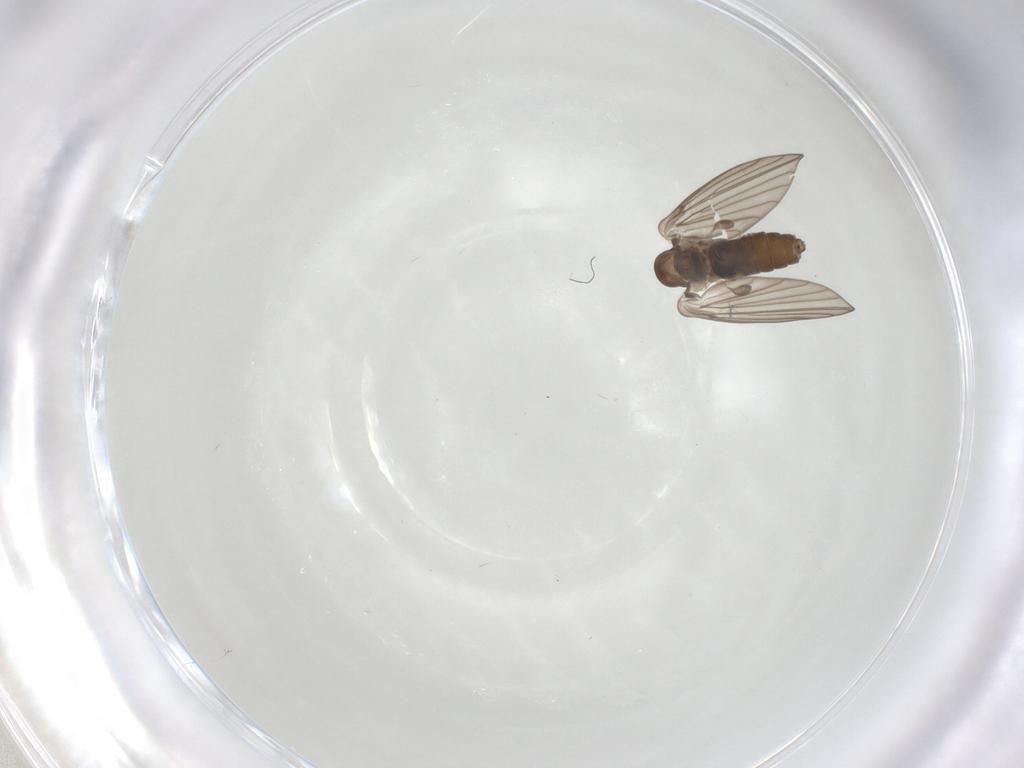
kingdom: Animalia
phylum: Arthropoda
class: Insecta
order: Diptera
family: Psychodidae
